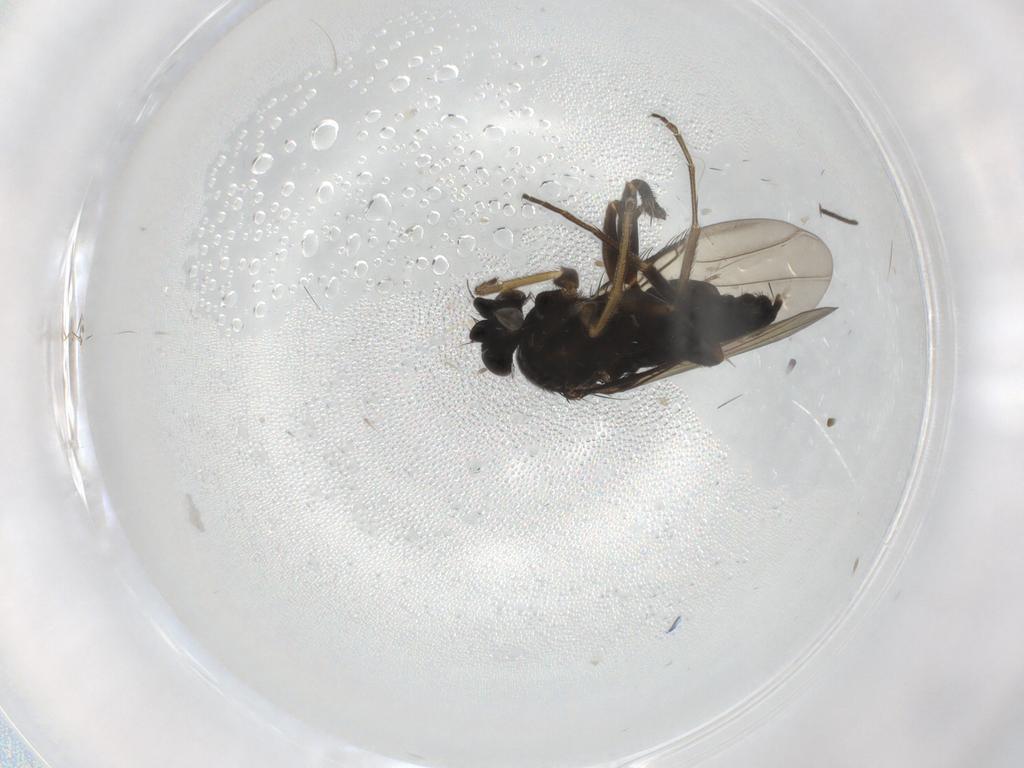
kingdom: Animalia
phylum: Arthropoda
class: Insecta
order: Diptera
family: Phoridae
